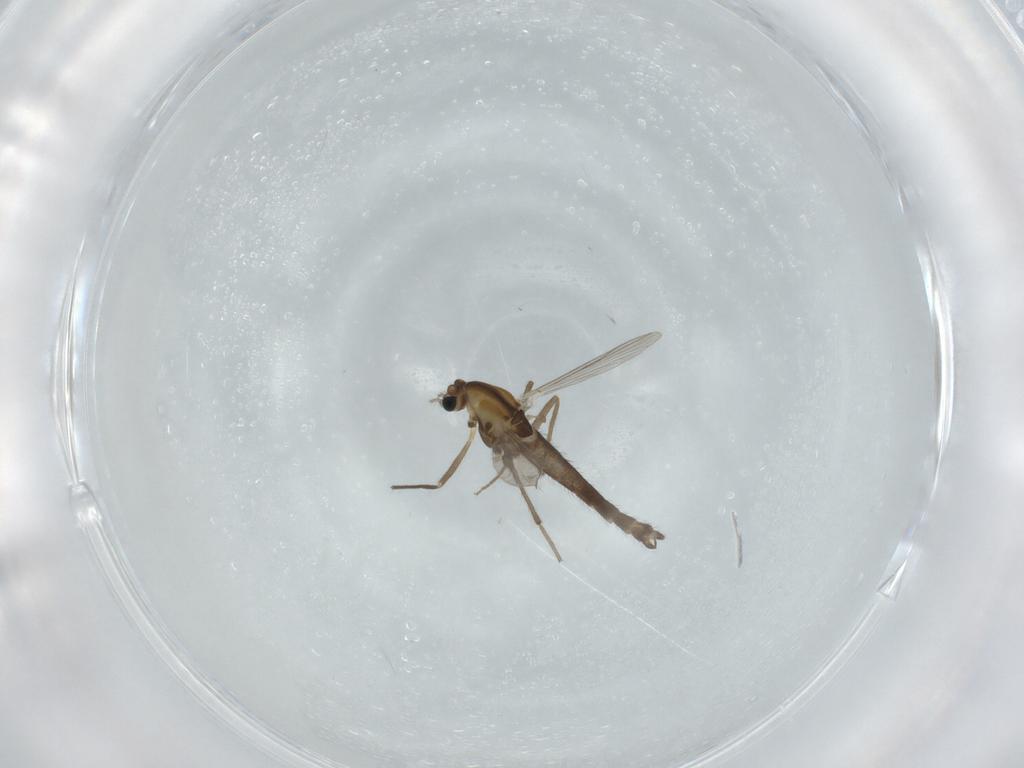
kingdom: Animalia
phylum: Arthropoda
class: Insecta
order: Diptera
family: Chironomidae
